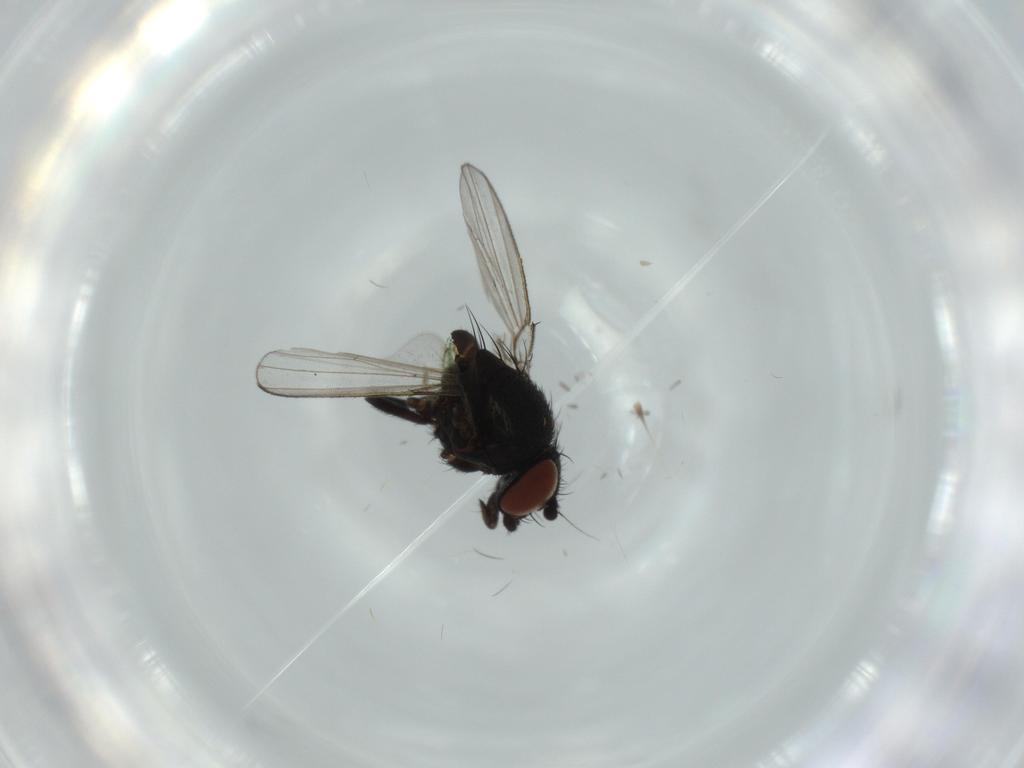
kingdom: Animalia
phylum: Arthropoda
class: Insecta
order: Diptera
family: Milichiidae
